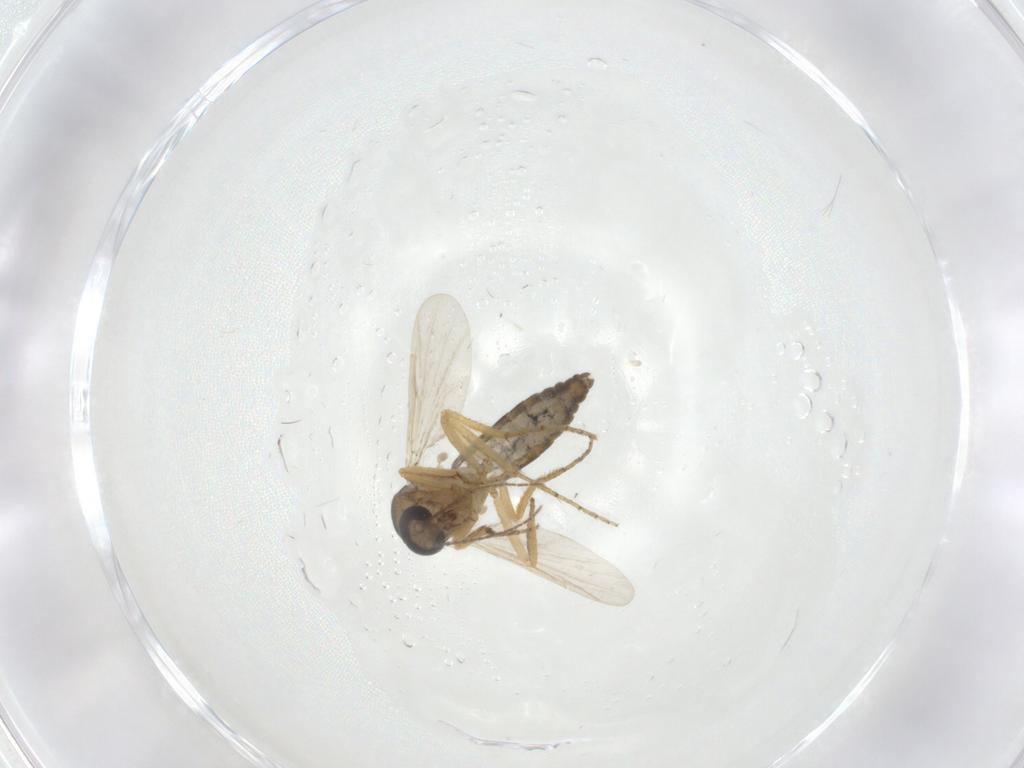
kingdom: Animalia
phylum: Arthropoda
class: Insecta
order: Diptera
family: Ceratopogonidae
